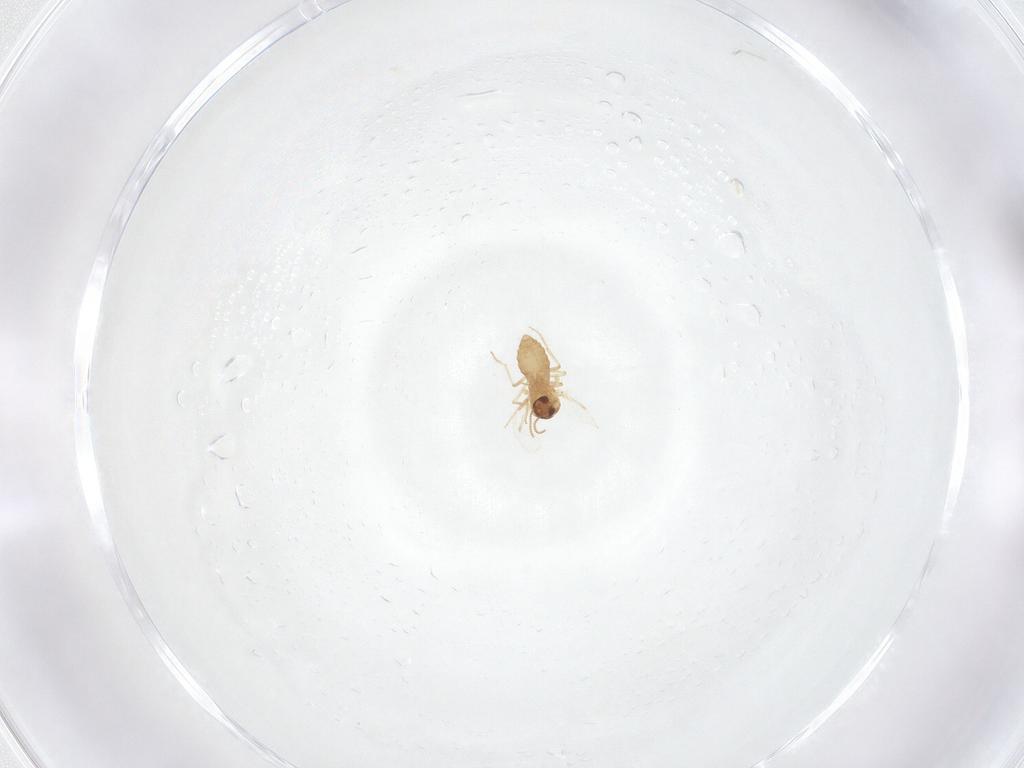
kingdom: Animalia
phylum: Arthropoda
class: Insecta
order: Diptera
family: Ceratopogonidae
